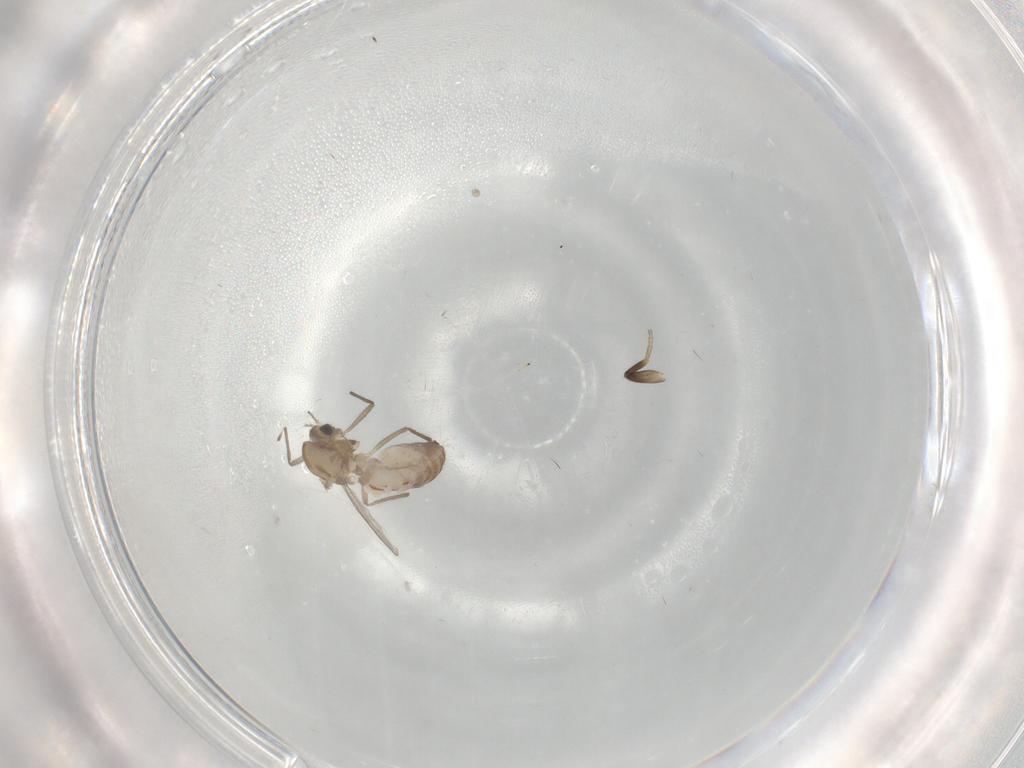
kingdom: Animalia
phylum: Arthropoda
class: Insecta
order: Diptera
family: Chironomidae
